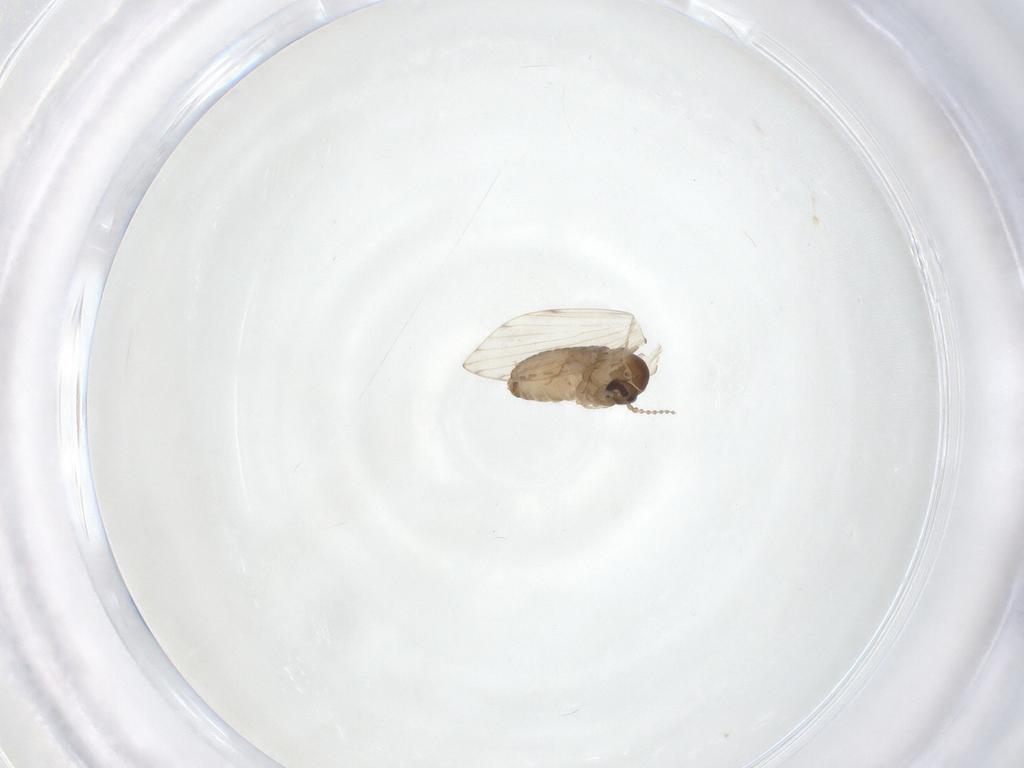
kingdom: Animalia
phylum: Arthropoda
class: Insecta
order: Diptera
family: Psychodidae
